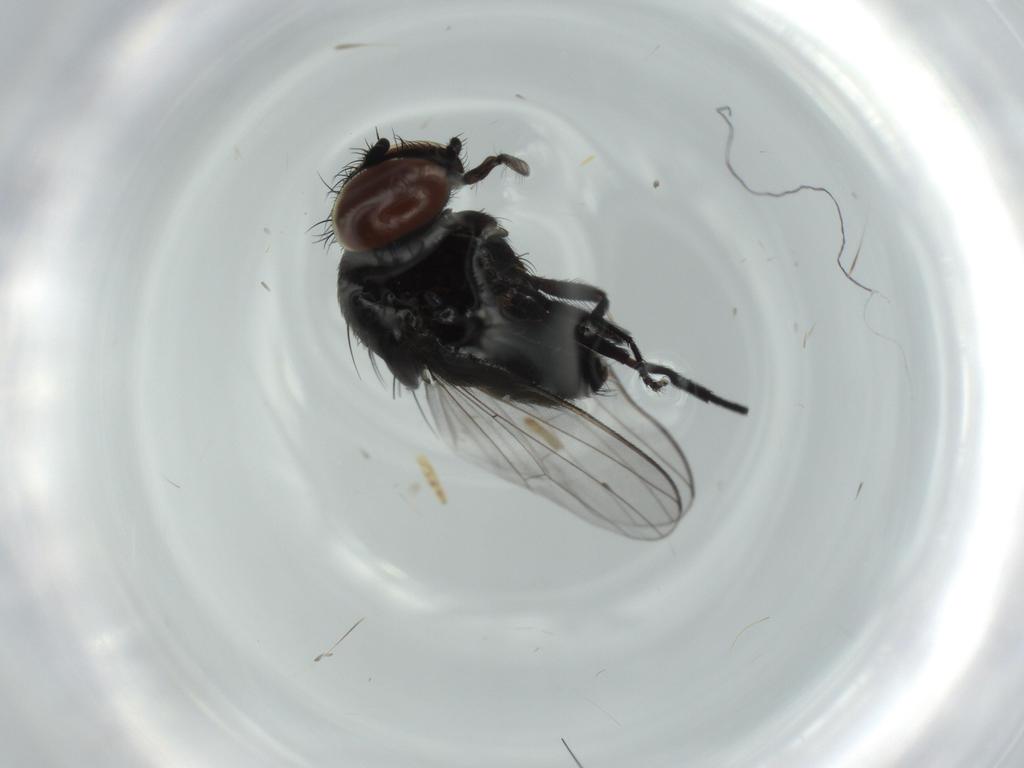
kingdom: Animalia
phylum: Arthropoda
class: Insecta
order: Diptera
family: Milichiidae
